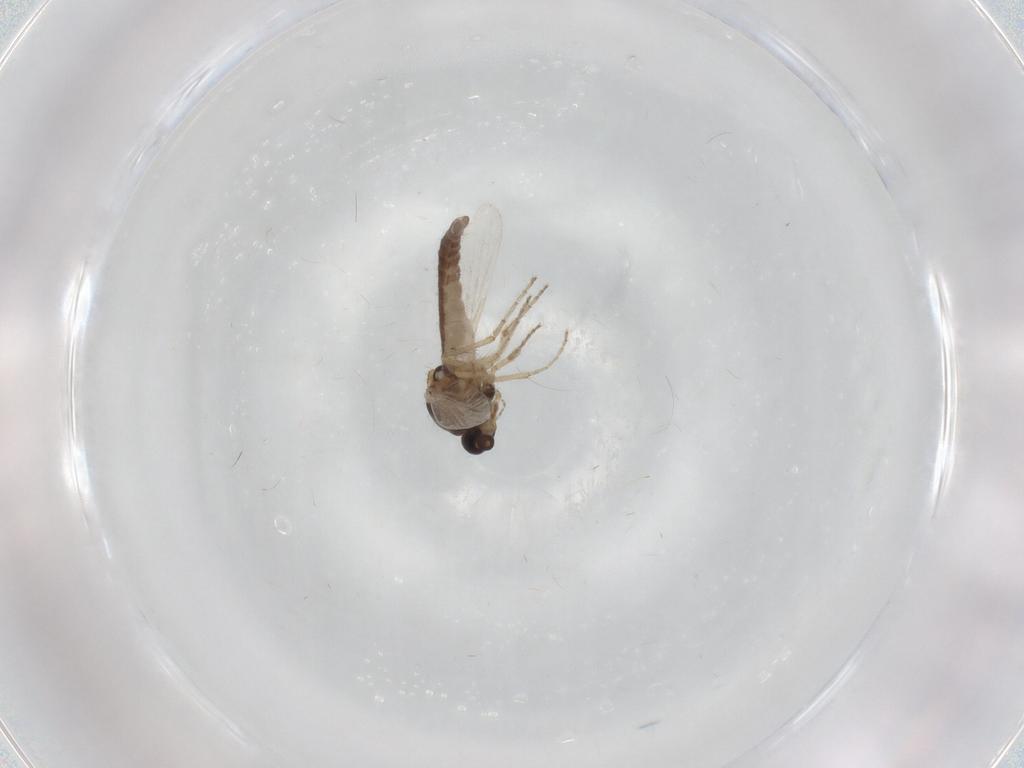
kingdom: Animalia
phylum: Arthropoda
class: Insecta
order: Diptera
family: Ceratopogonidae
